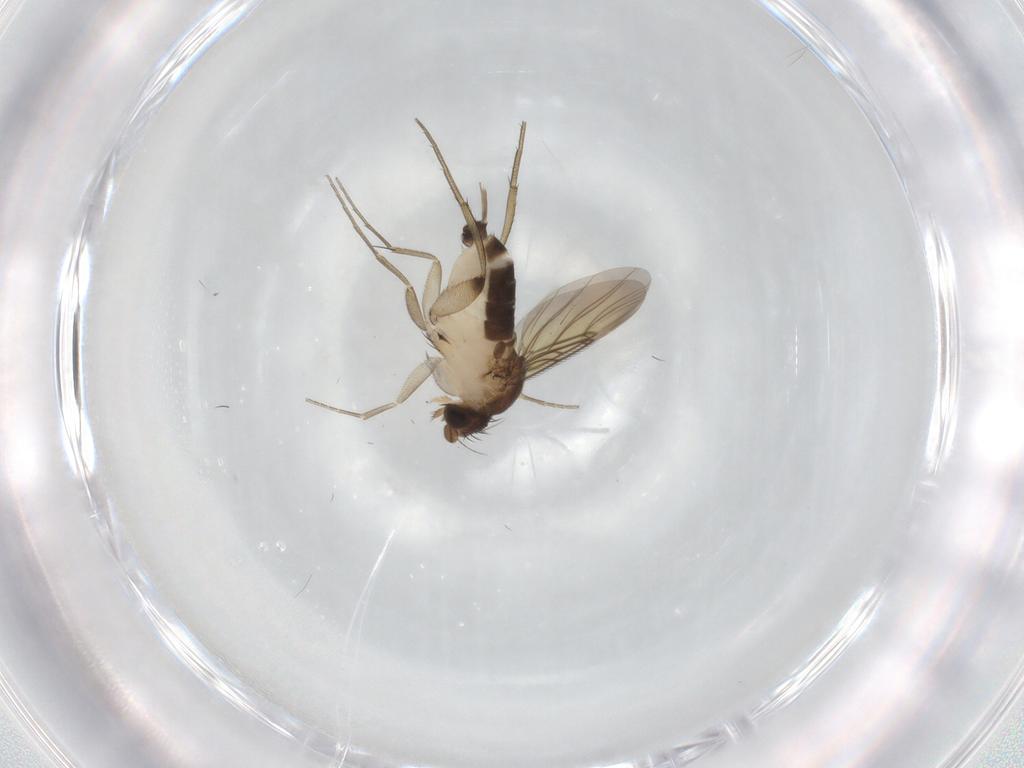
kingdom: Animalia
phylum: Arthropoda
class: Insecta
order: Diptera
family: Phoridae
